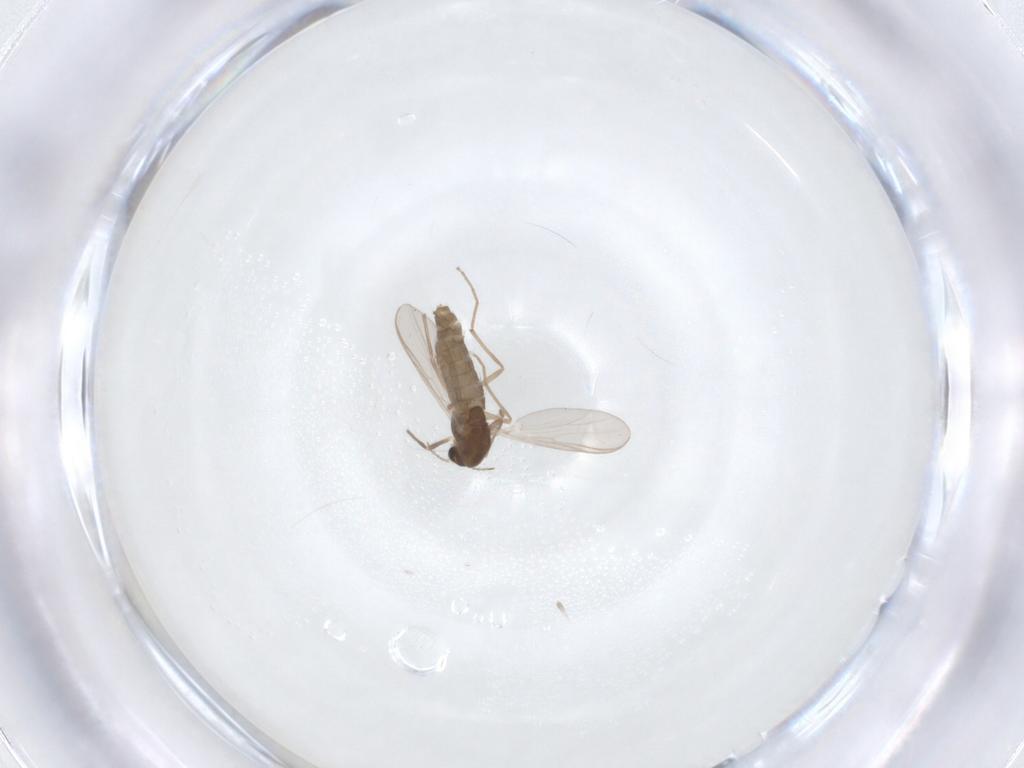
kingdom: Animalia
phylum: Arthropoda
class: Insecta
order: Diptera
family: Chironomidae
